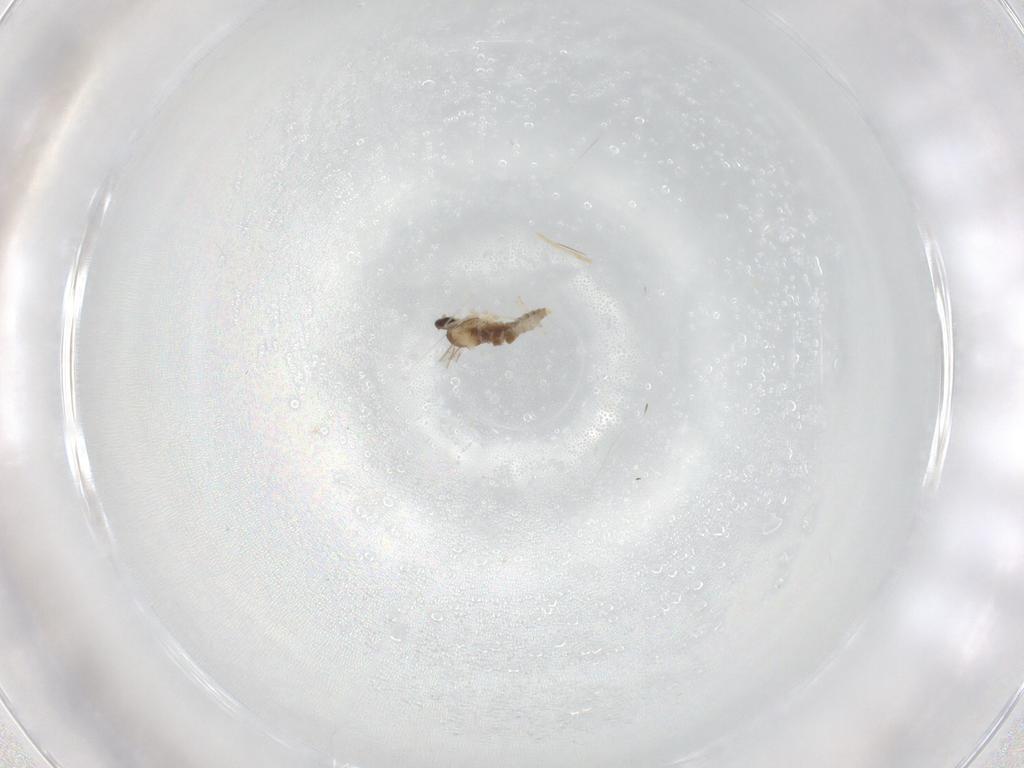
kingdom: Animalia
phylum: Arthropoda
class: Insecta
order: Diptera
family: Cecidomyiidae
